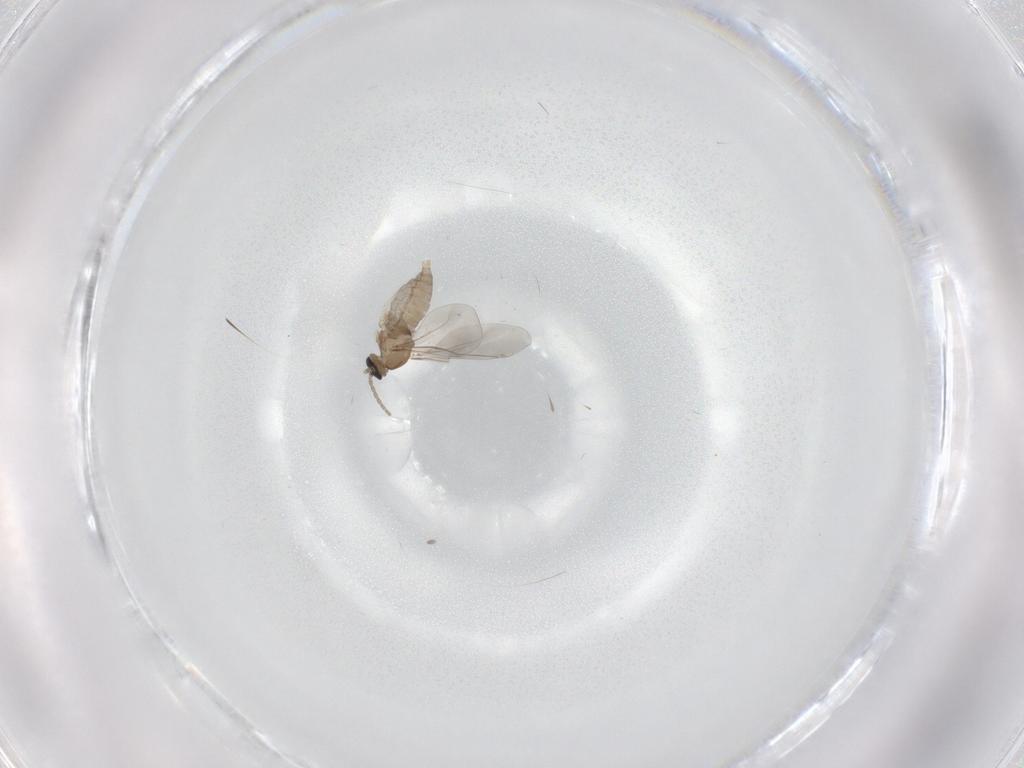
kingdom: Animalia
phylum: Arthropoda
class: Insecta
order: Diptera
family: Cecidomyiidae
